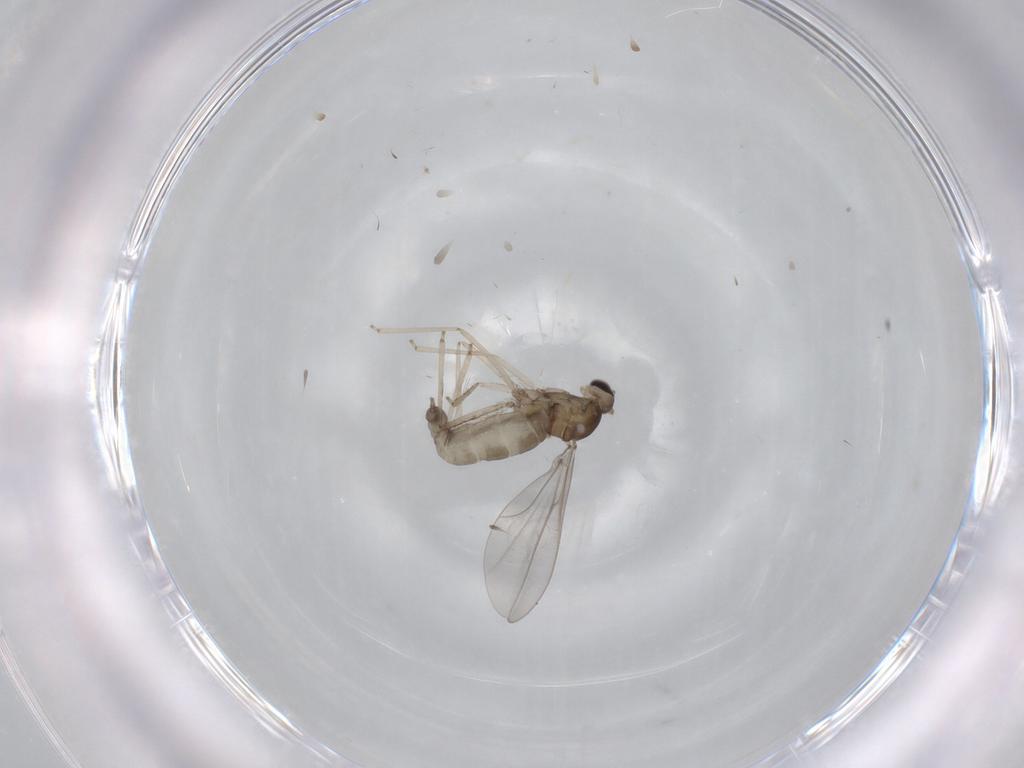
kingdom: Animalia
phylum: Arthropoda
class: Insecta
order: Diptera
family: Cecidomyiidae
